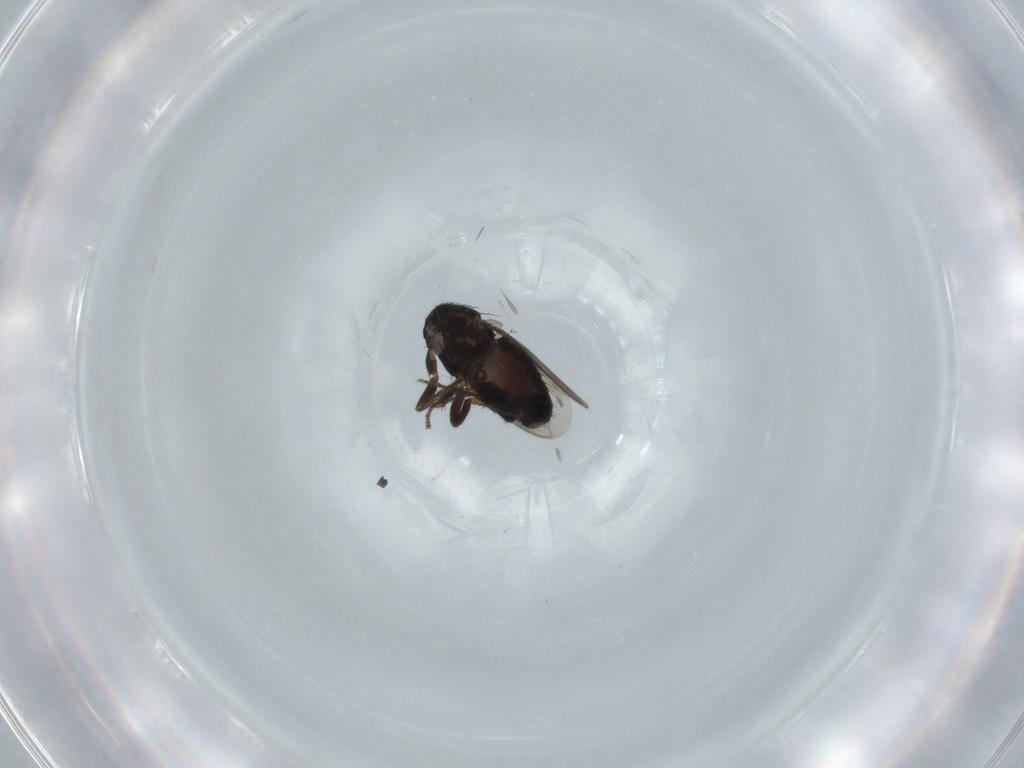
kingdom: Animalia
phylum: Arthropoda
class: Insecta
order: Diptera
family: Sphaeroceridae
